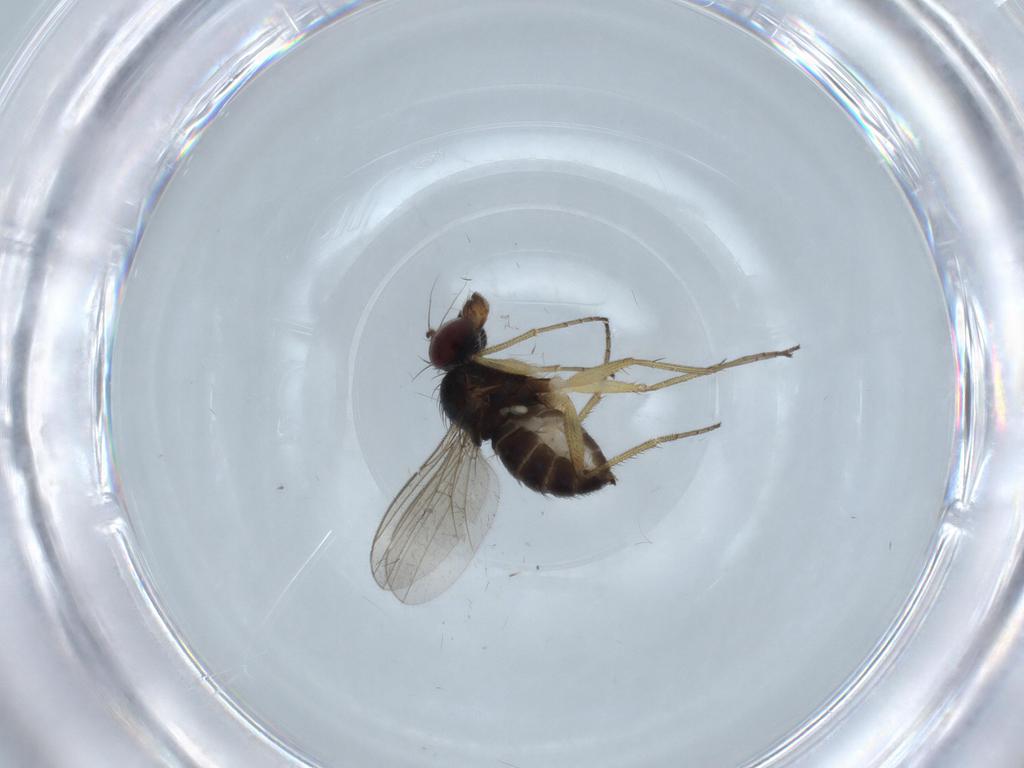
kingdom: Animalia
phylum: Arthropoda
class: Insecta
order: Diptera
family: Dolichopodidae
